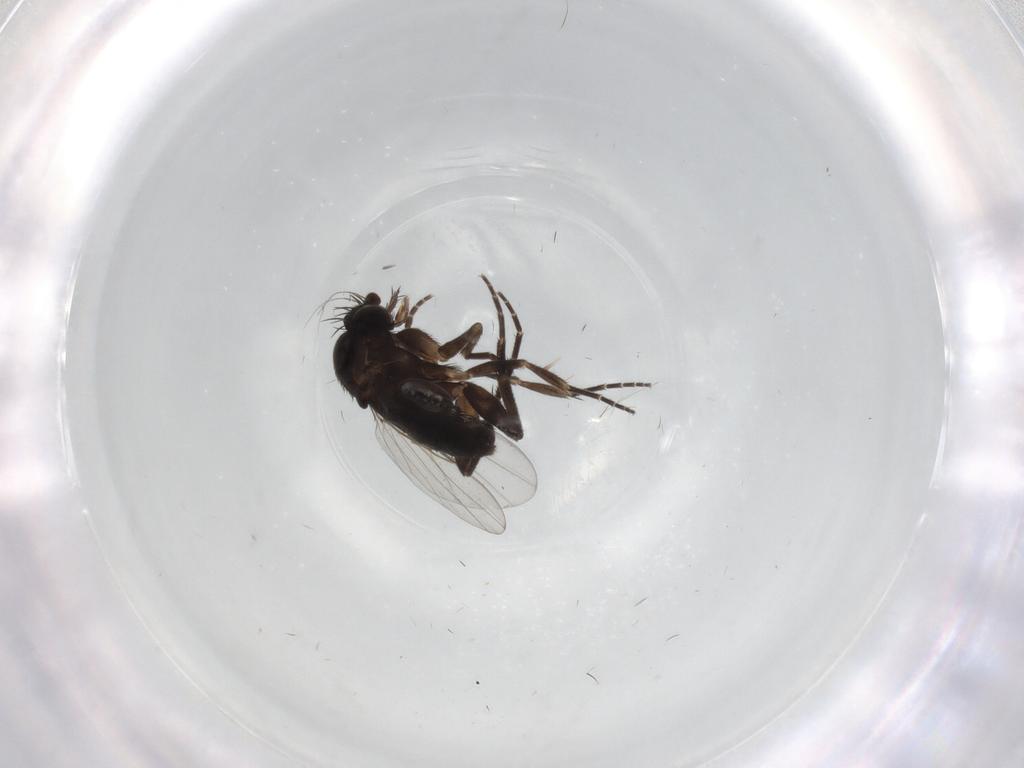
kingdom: Animalia
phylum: Arthropoda
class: Insecta
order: Diptera
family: Phoridae
